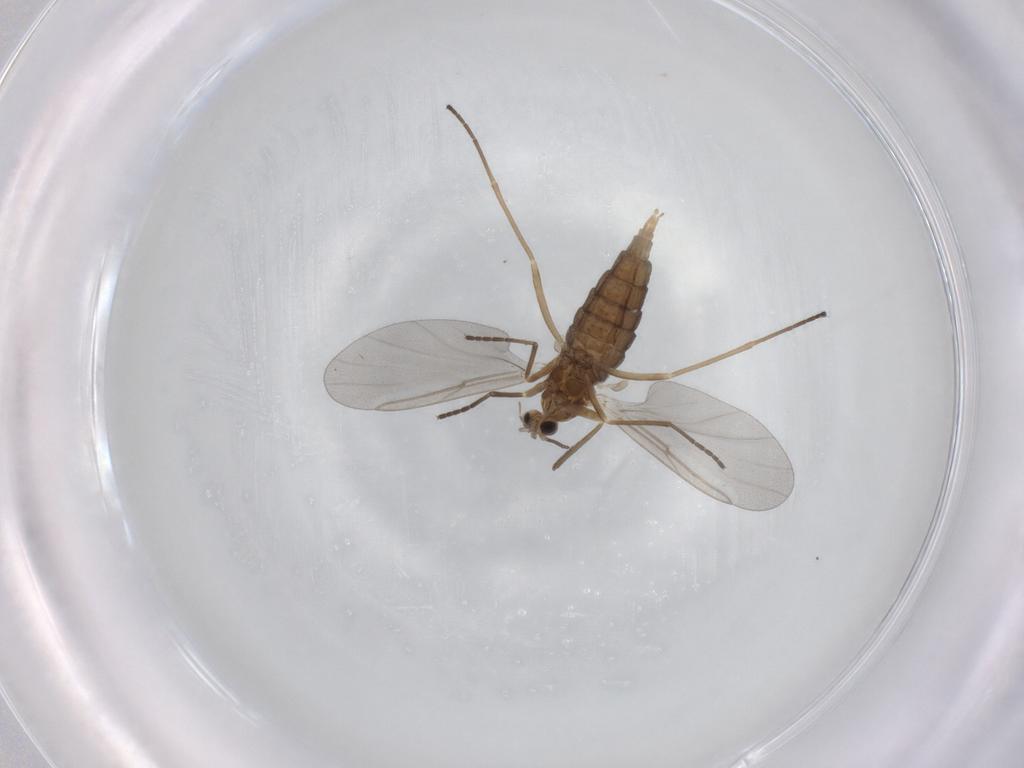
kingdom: Animalia
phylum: Arthropoda
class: Insecta
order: Diptera
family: Cecidomyiidae
